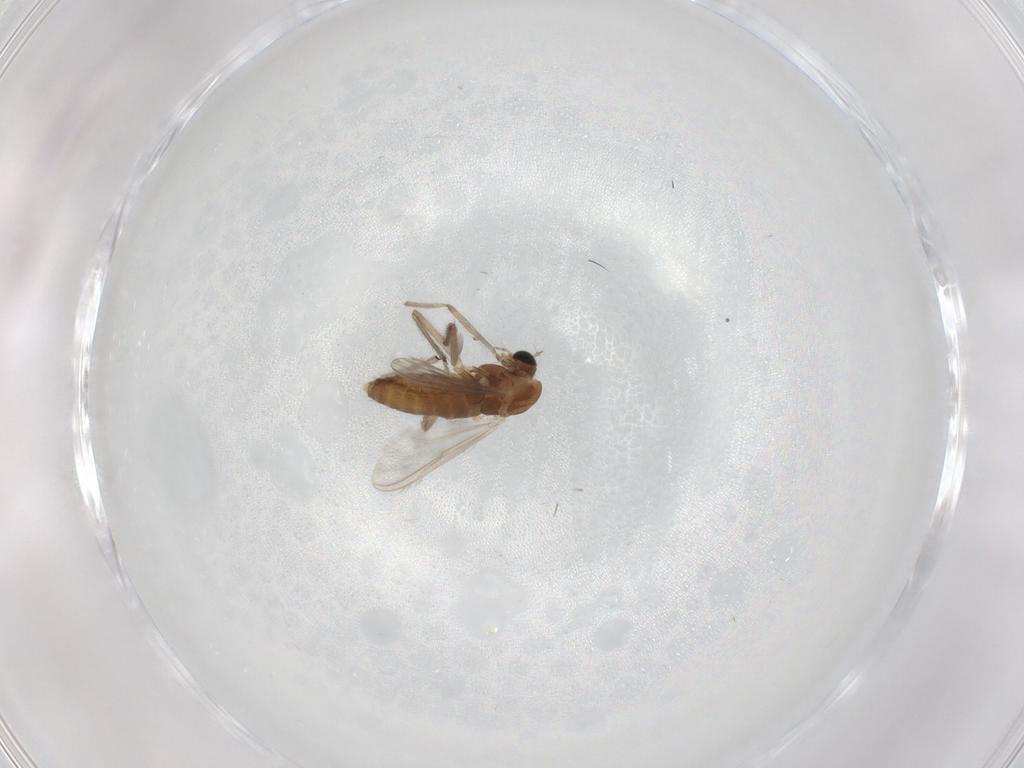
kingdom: Animalia
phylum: Arthropoda
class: Insecta
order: Diptera
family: Chironomidae
